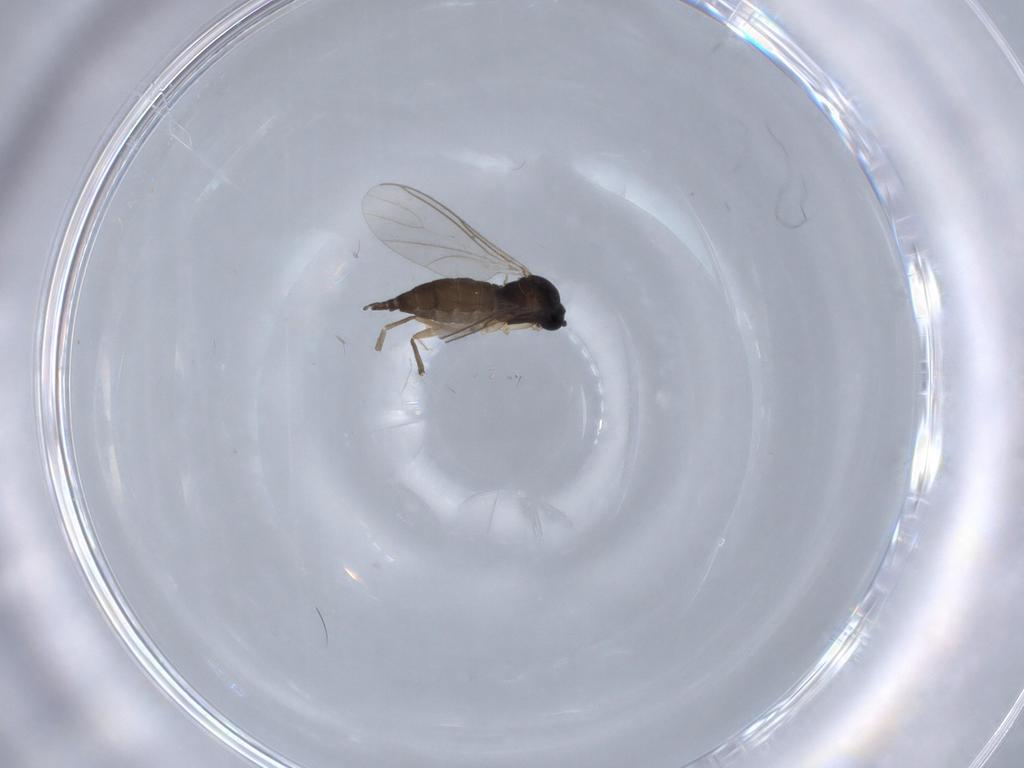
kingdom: Animalia
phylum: Arthropoda
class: Insecta
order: Diptera
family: Sciaridae
